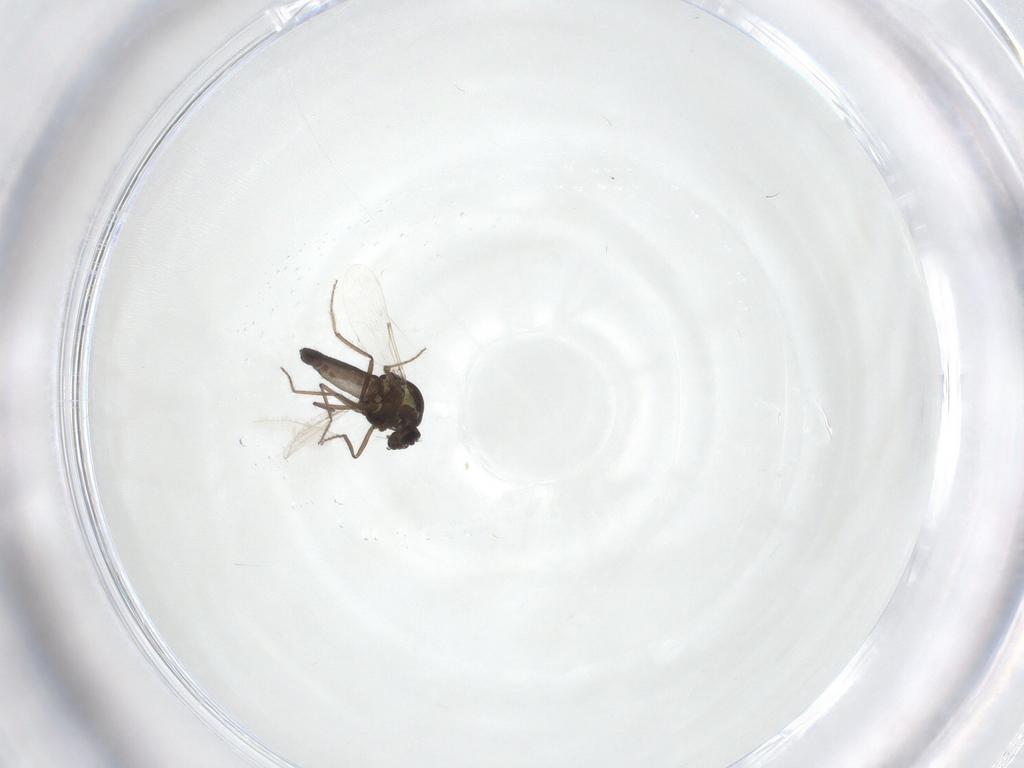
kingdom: Animalia
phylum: Arthropoda
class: Insecta
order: Diptera
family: Ceratopogonidae
